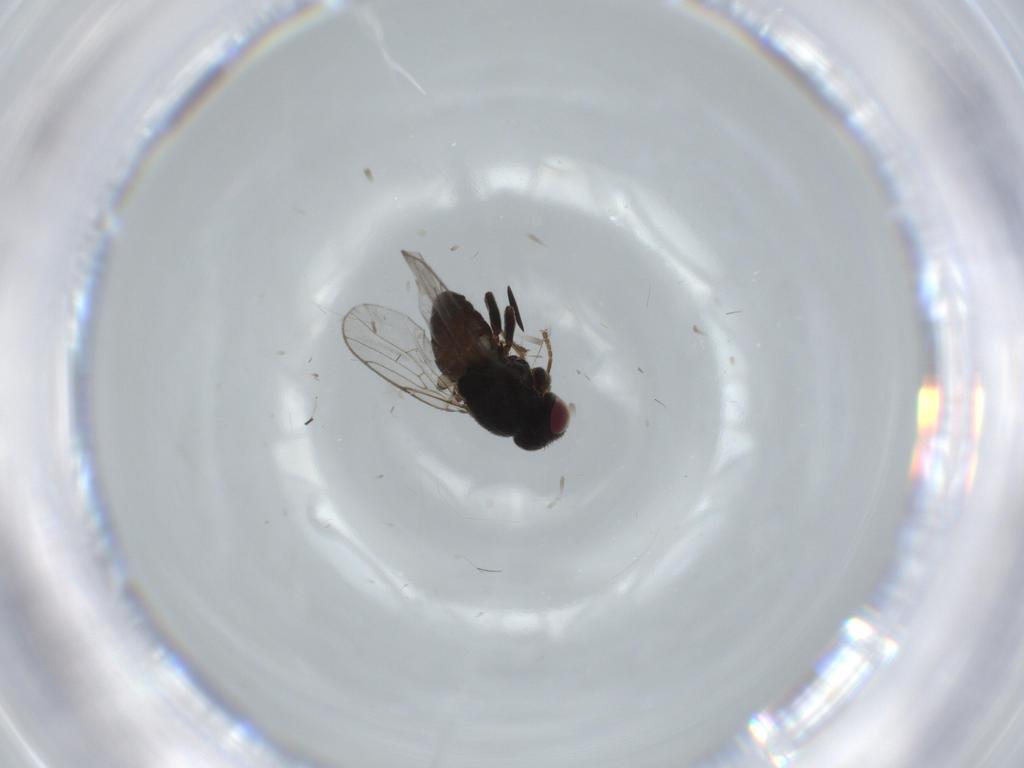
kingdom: Animalia
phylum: Arthropoda
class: Insecta
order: Diptera
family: Chloropidae
